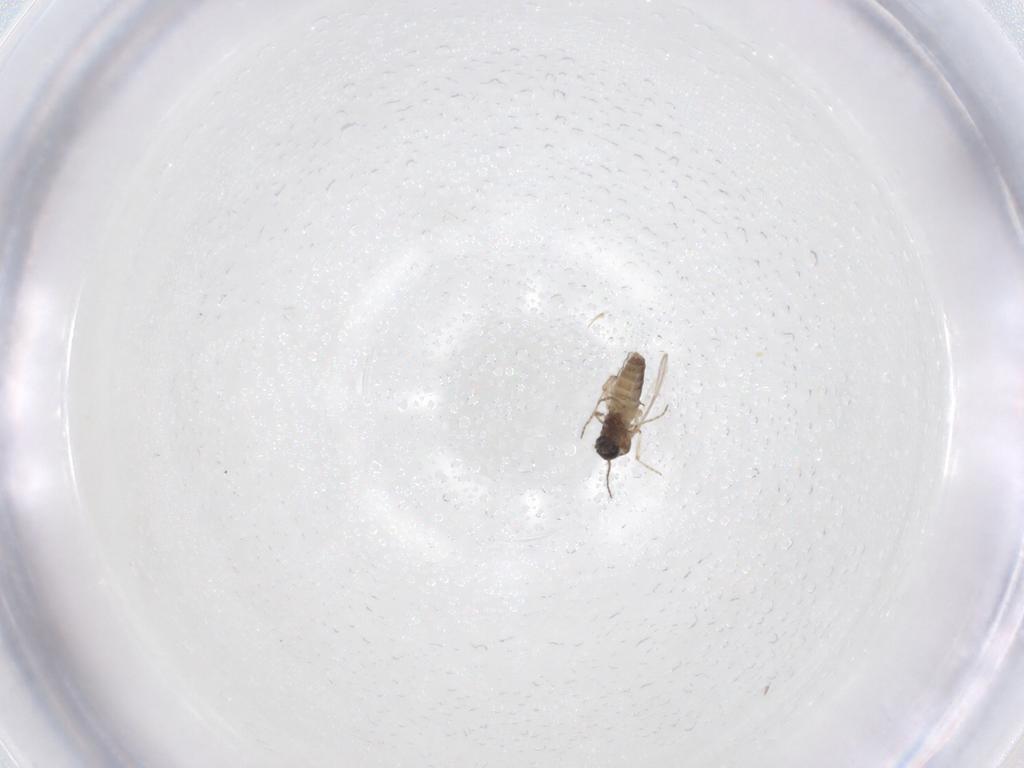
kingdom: Animalia
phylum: Arthropoda
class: Insecta
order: Diptera
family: Ceratopogonidae
